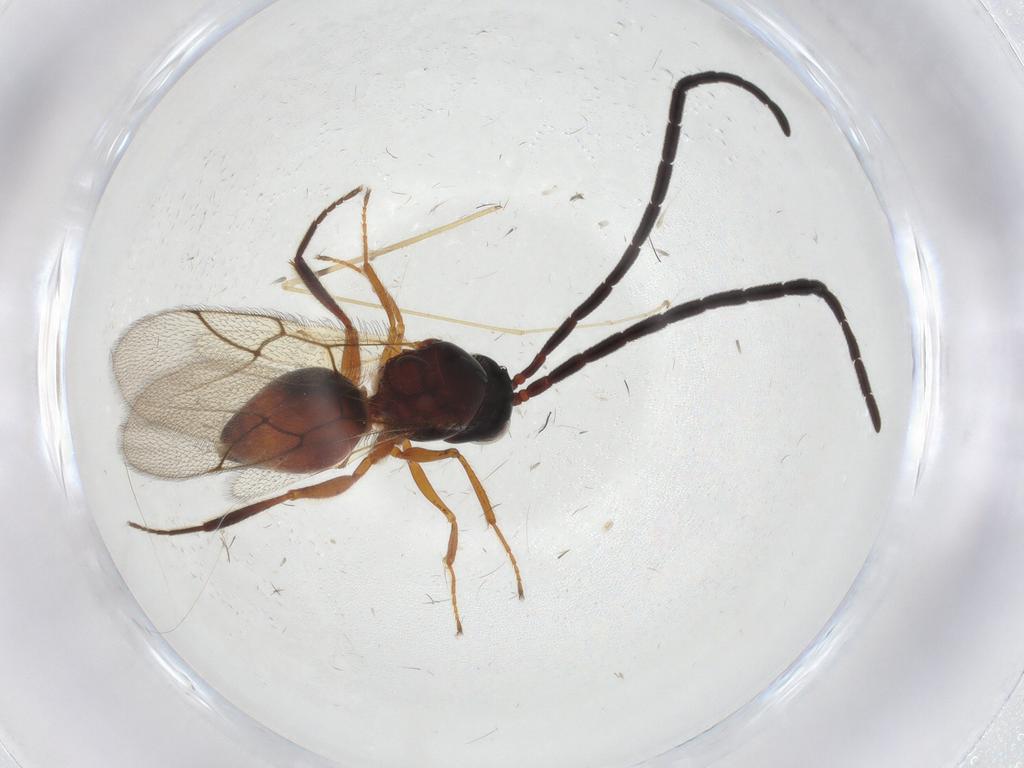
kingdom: Animalia
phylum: Arthropoda
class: Insecta
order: Hymenoptera
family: Figitidae
